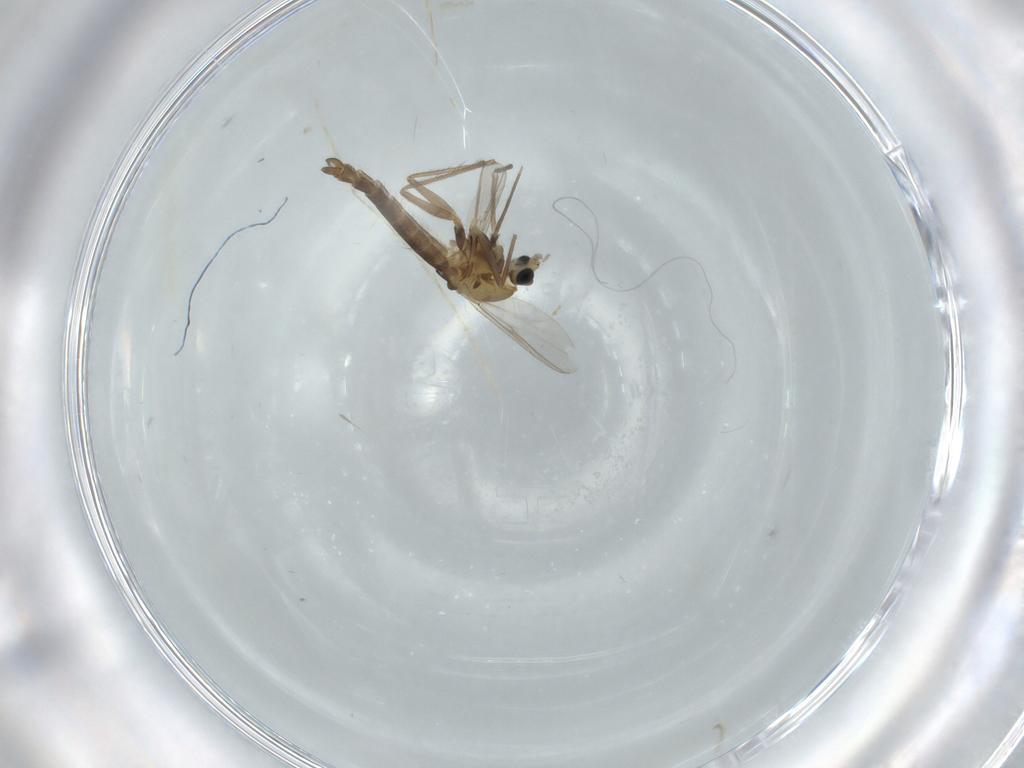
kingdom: Animalia
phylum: Arthropoda
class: Insecta
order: Diptera
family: Chironomidae
